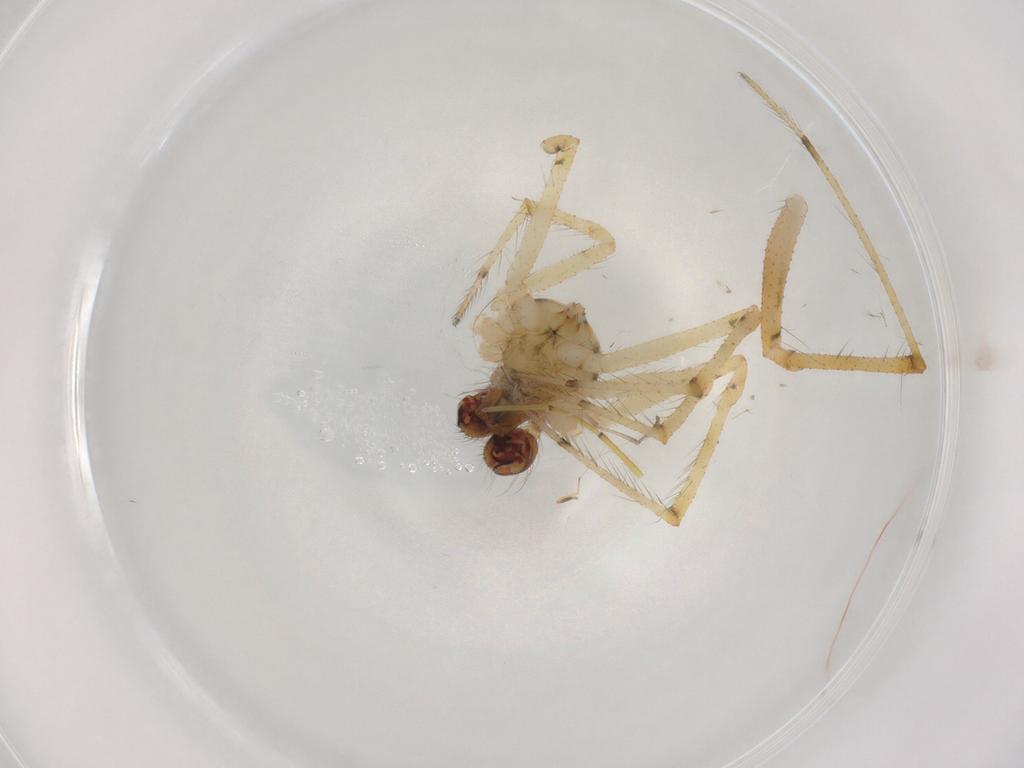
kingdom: Animalia
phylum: Arthropoda
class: Arachnida
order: Araneae
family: Theridiidae
